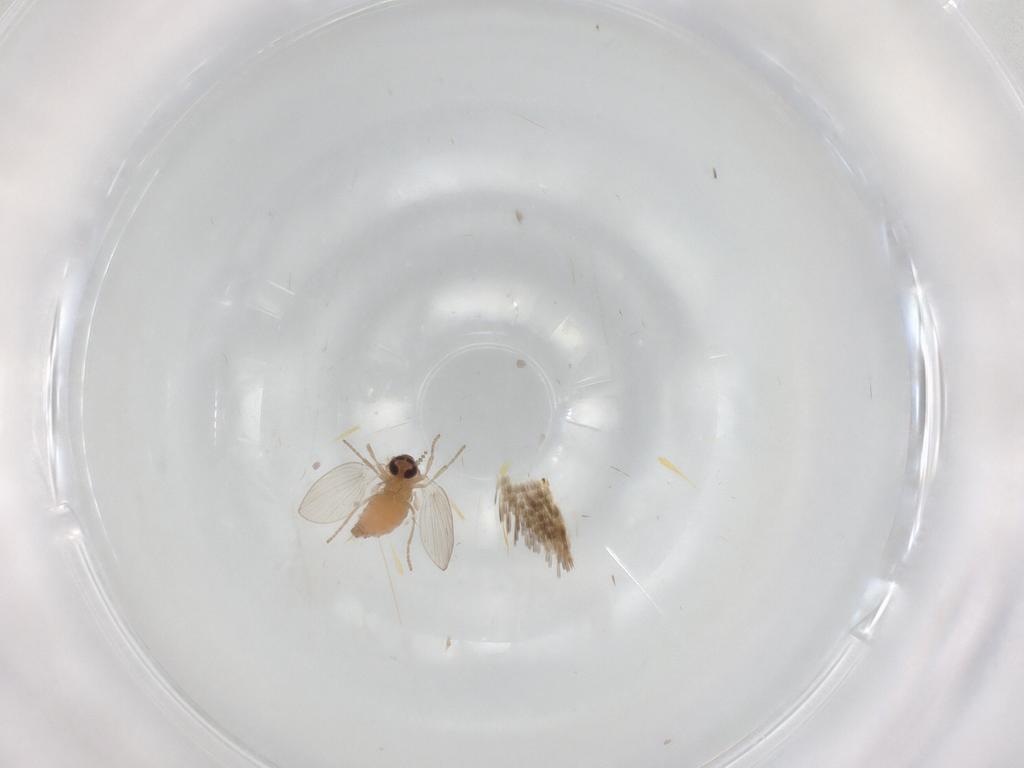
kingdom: Animalia
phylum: Arthropoda
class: Insecta
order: Diptera
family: Psychodidae
